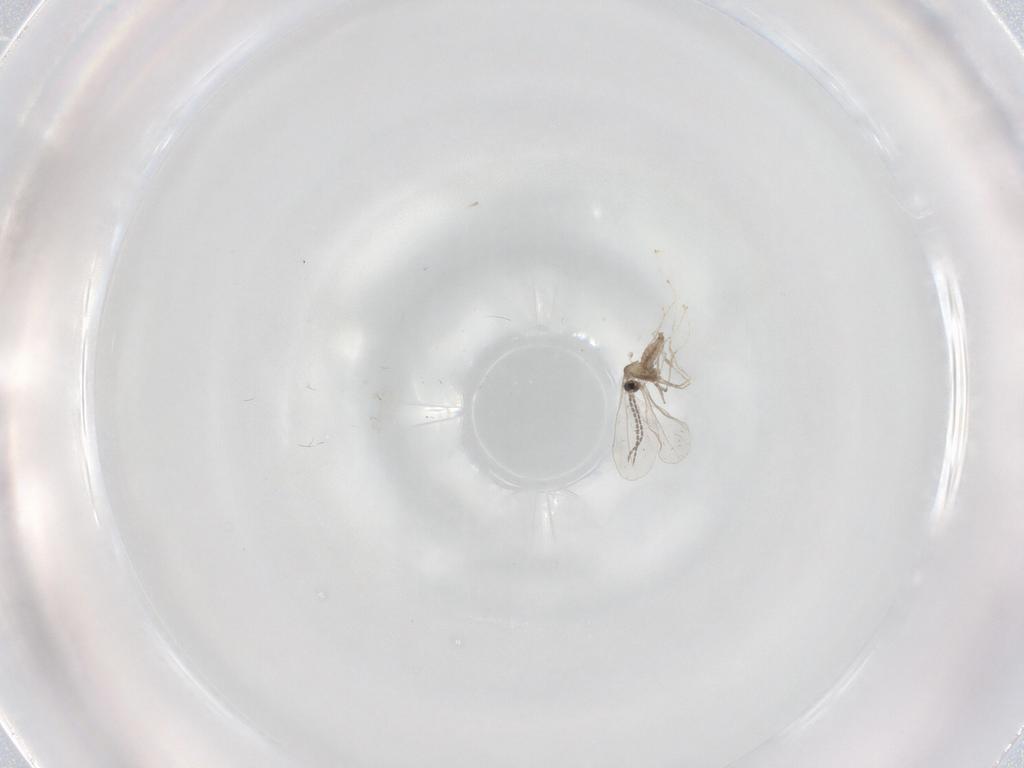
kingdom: Animalia
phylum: Arthropoda
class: Insecta
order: Diptera
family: Cecidomyiidae
